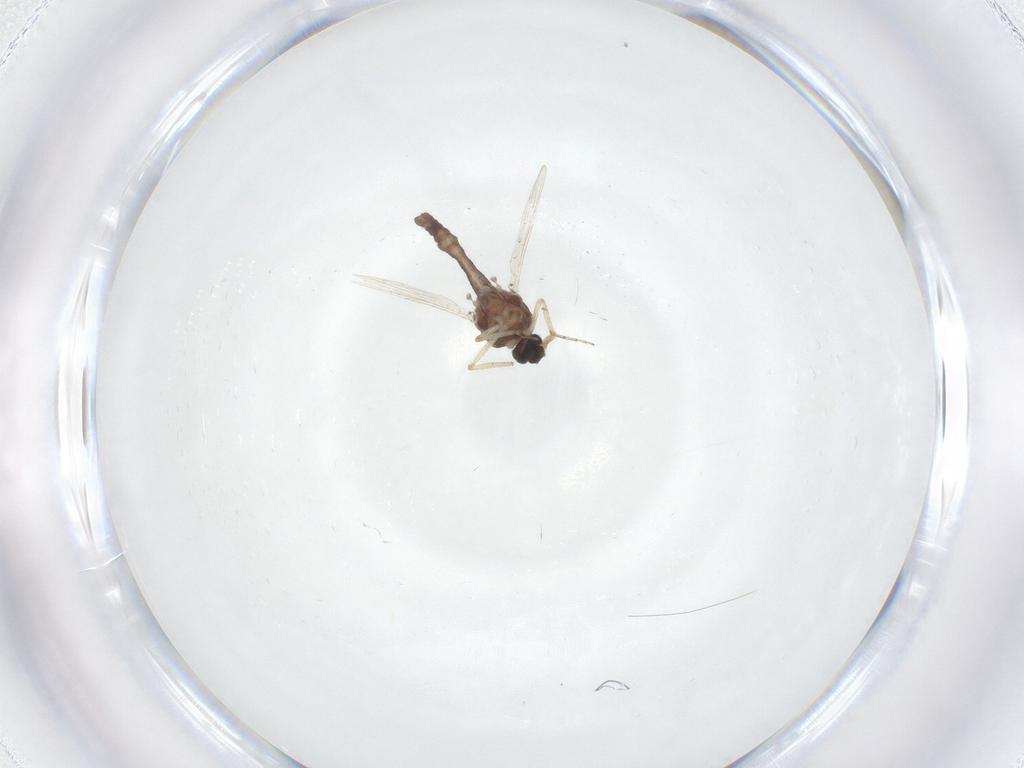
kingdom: Animalia
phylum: Arthropoda
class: Insecta
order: Diptera
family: Ceratopogonidae
